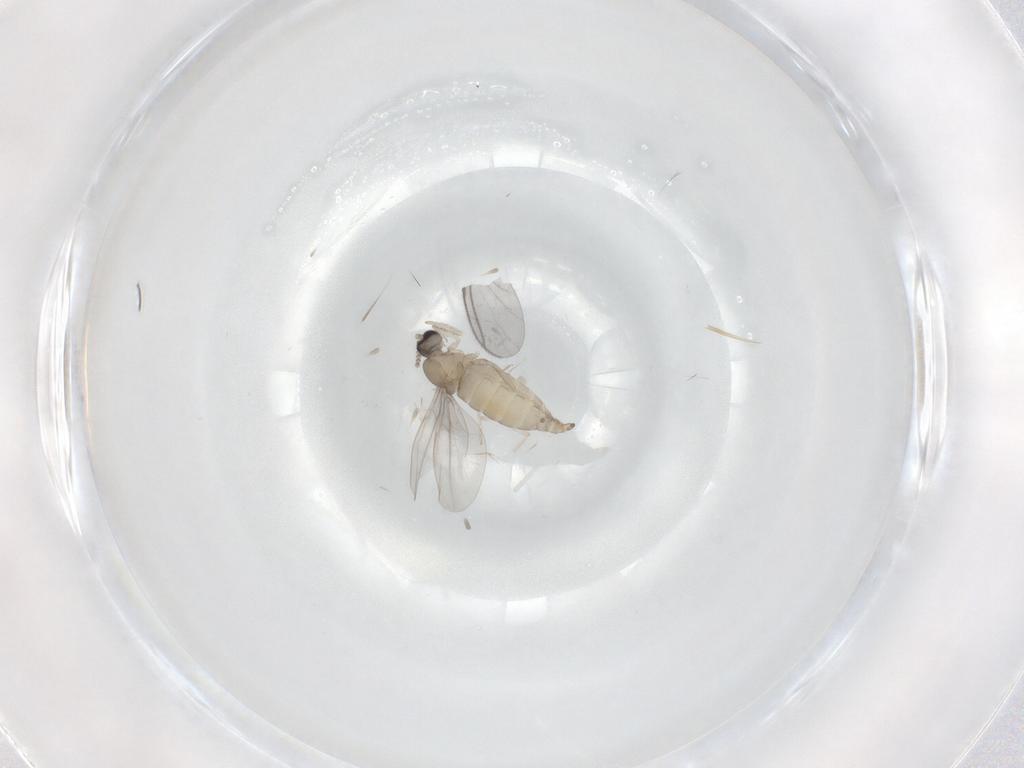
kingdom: Animalia
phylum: Arthropoda
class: Insecta
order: Diptera
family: Cecidomyiidae
